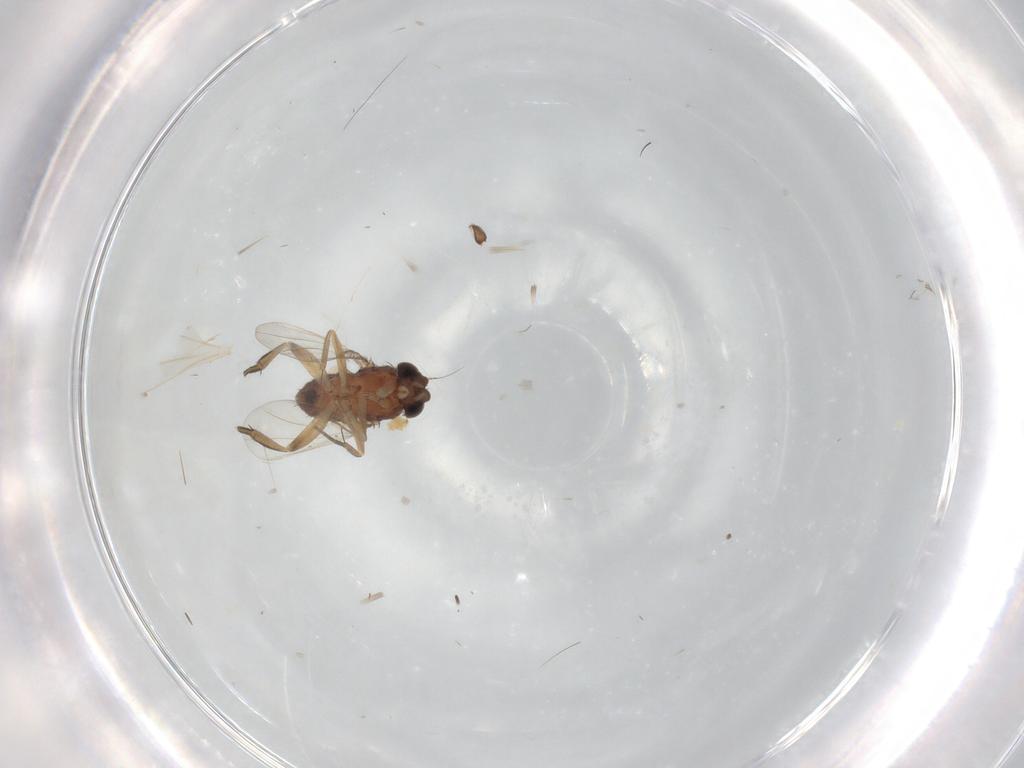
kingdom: Animalia
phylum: Arthropoda
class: Insecta
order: Diptera
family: Phoridae
